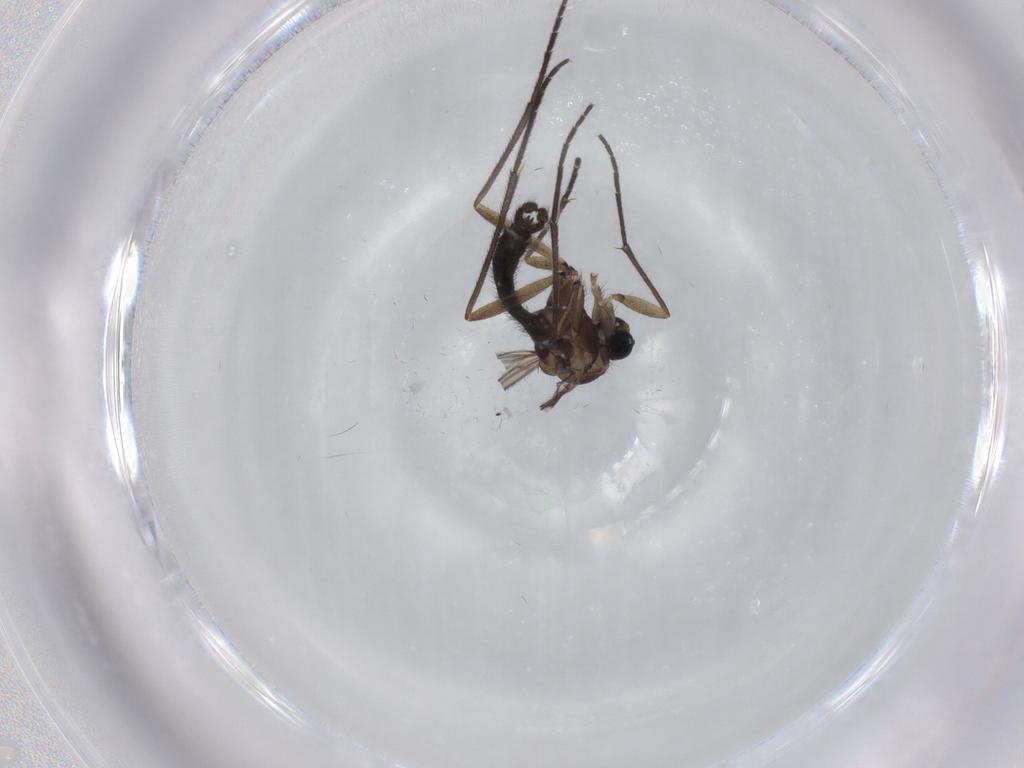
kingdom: Animalia
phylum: Arthropoda
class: Insecta
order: Diptera
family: Sciaridae
